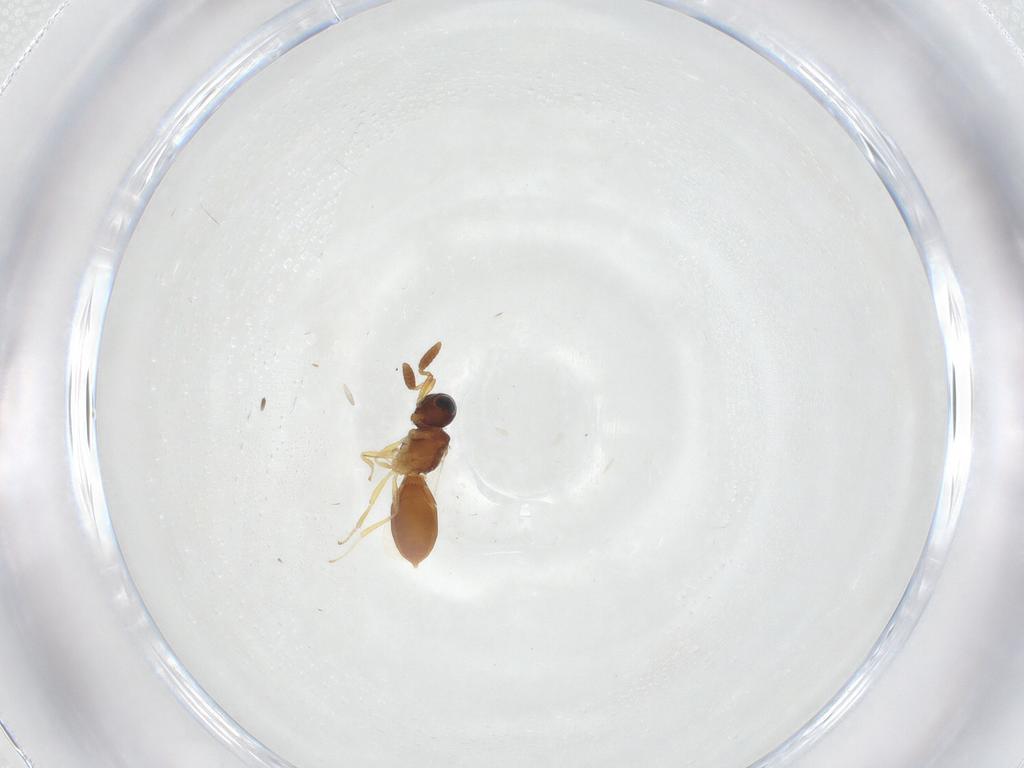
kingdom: Animalia
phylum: Arthropoda
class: Insecta
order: Hymenoptera
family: Scelionidae
